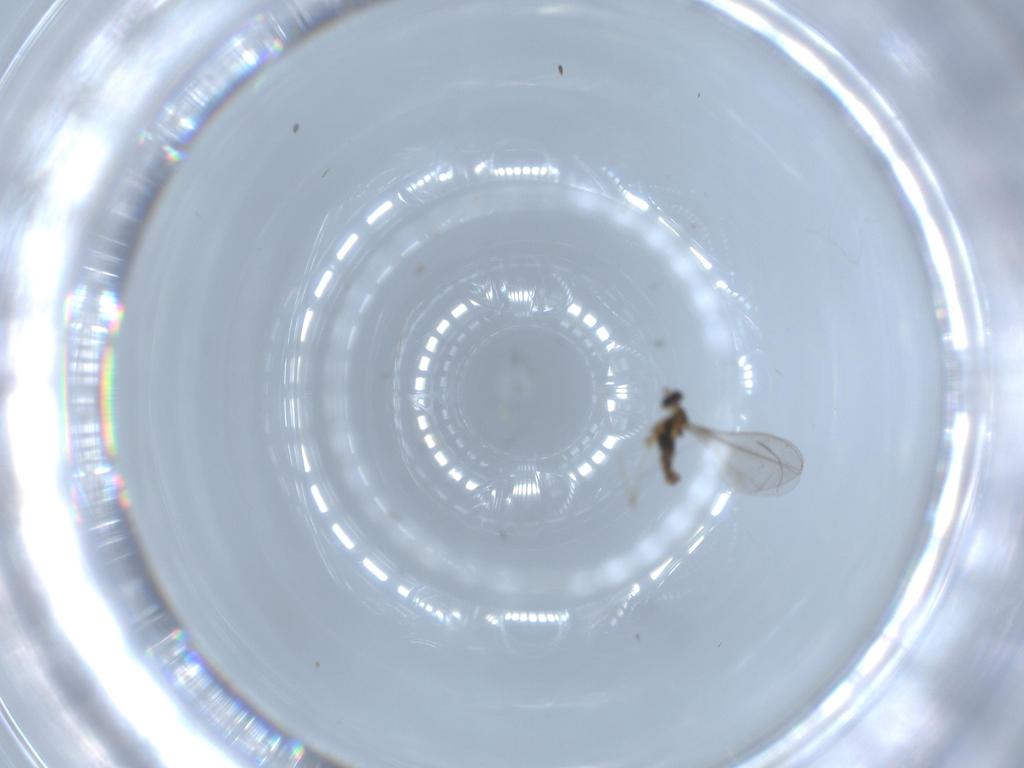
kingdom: Animalia
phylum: Arthropoda
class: Insecta
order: Diptera
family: Cecidomyiidae
